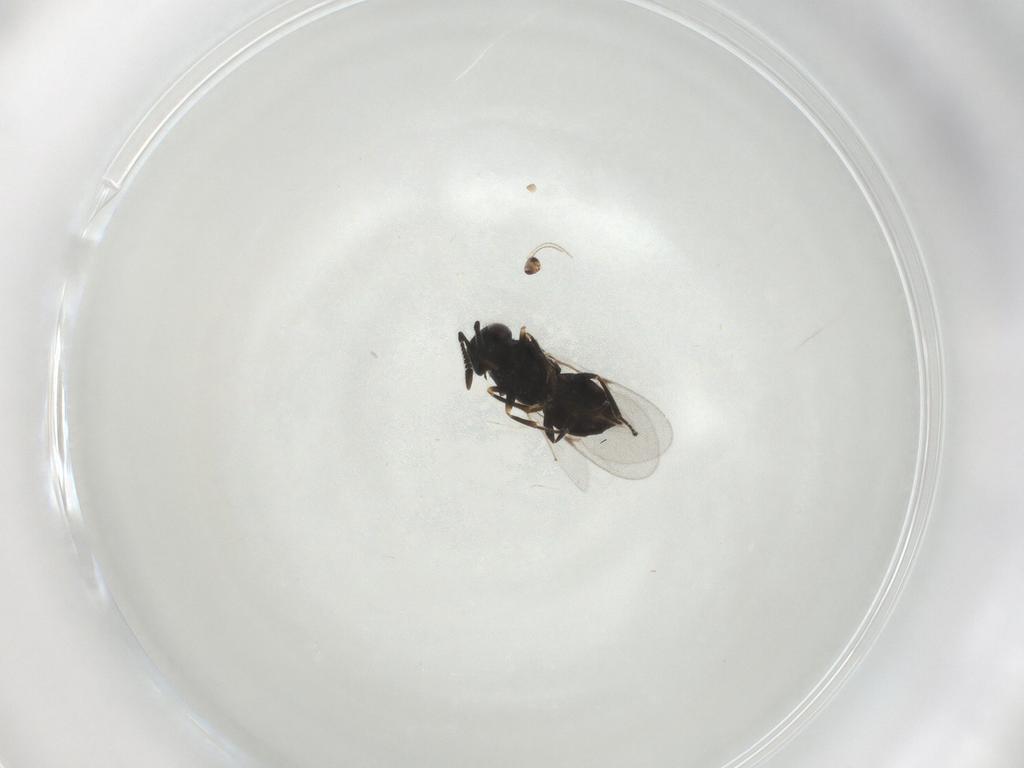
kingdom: Animalia
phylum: Arthropoda
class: Insecta
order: Hymenoptera
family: Encyrtidae
